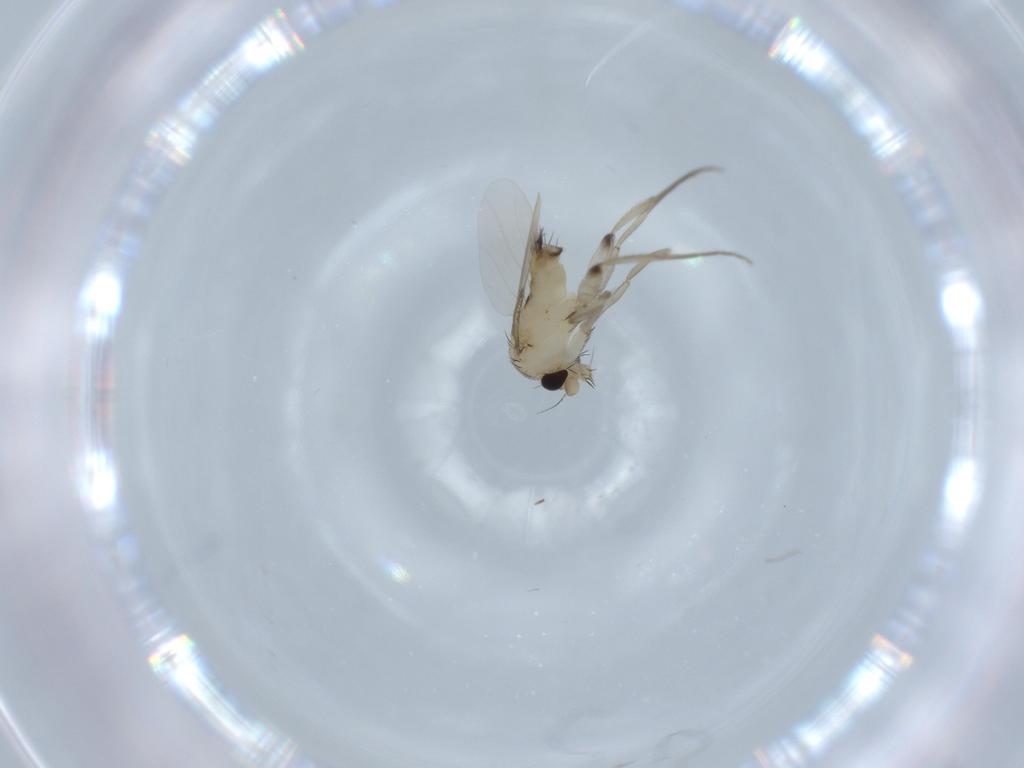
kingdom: Animalia
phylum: Arthropoda
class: Insecta
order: Diptera
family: Phoridae
